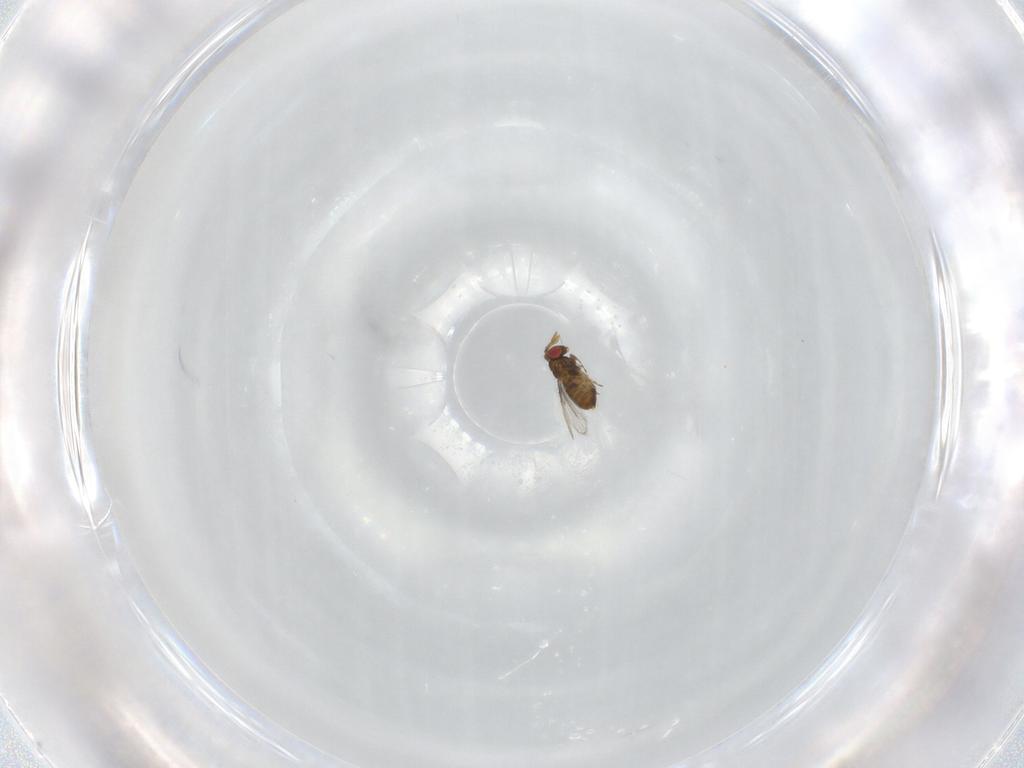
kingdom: Animalia
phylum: Arthropoda
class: Insecta
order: Hymenoptera
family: Trichogrammatidae
